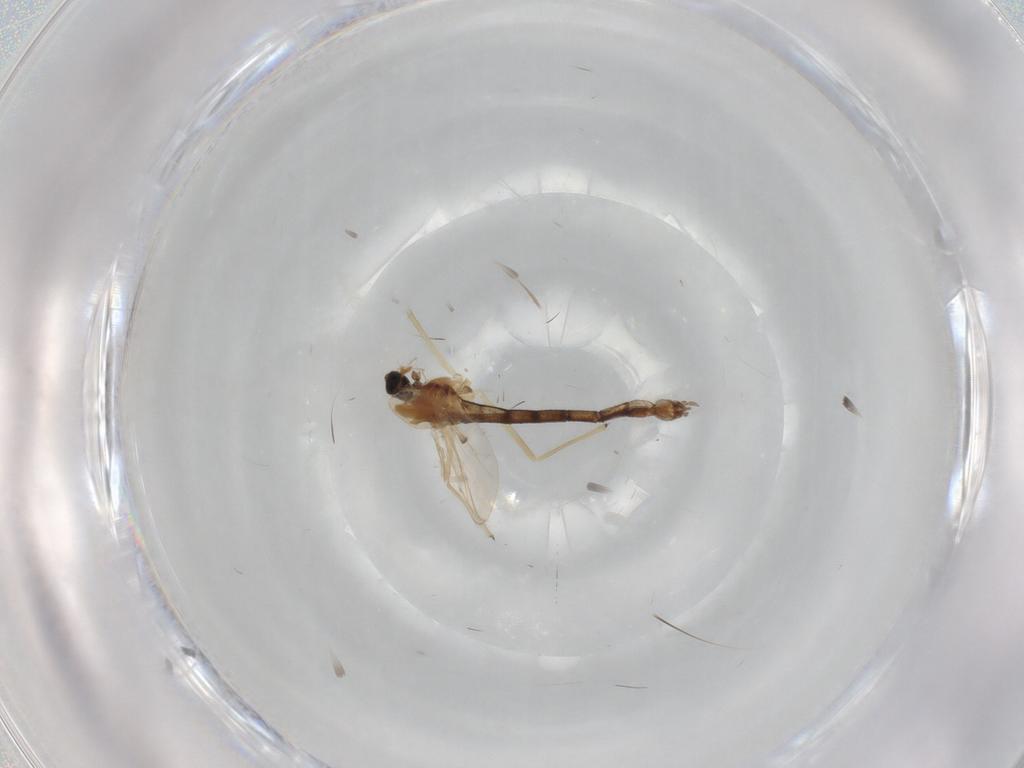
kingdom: Animalia
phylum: Arthropoda
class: Insecta
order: Diptera
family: Chironomidae
